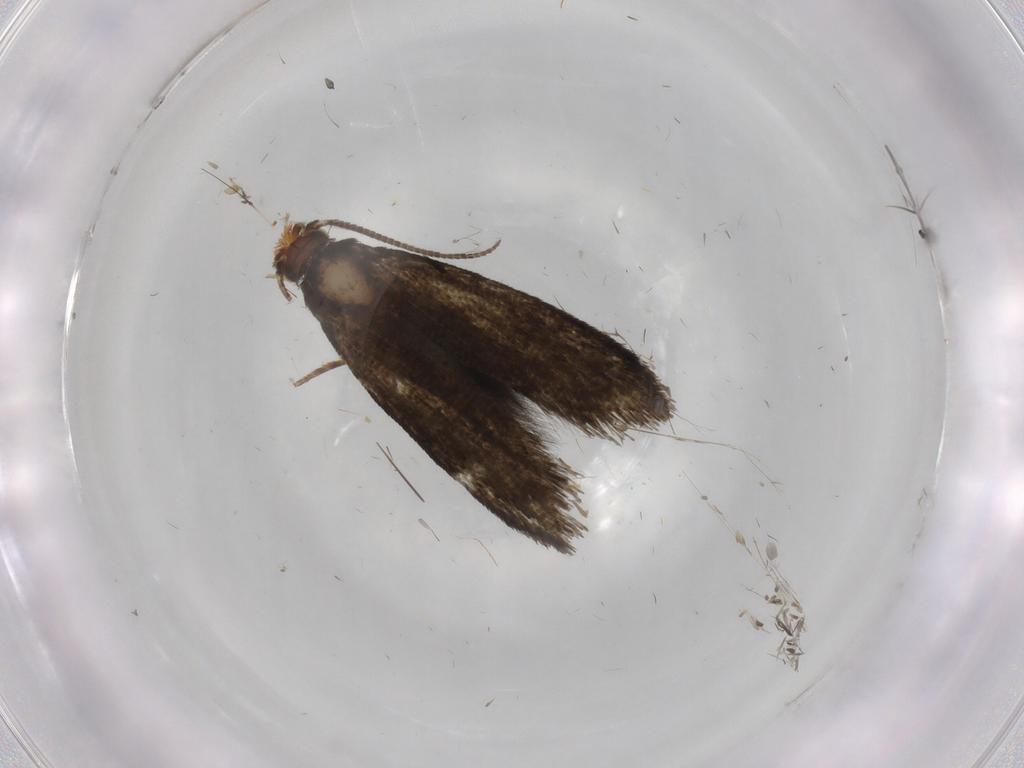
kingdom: Animalia
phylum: Arthropoda
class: Insecta
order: Lepidoptera
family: Tineidae
